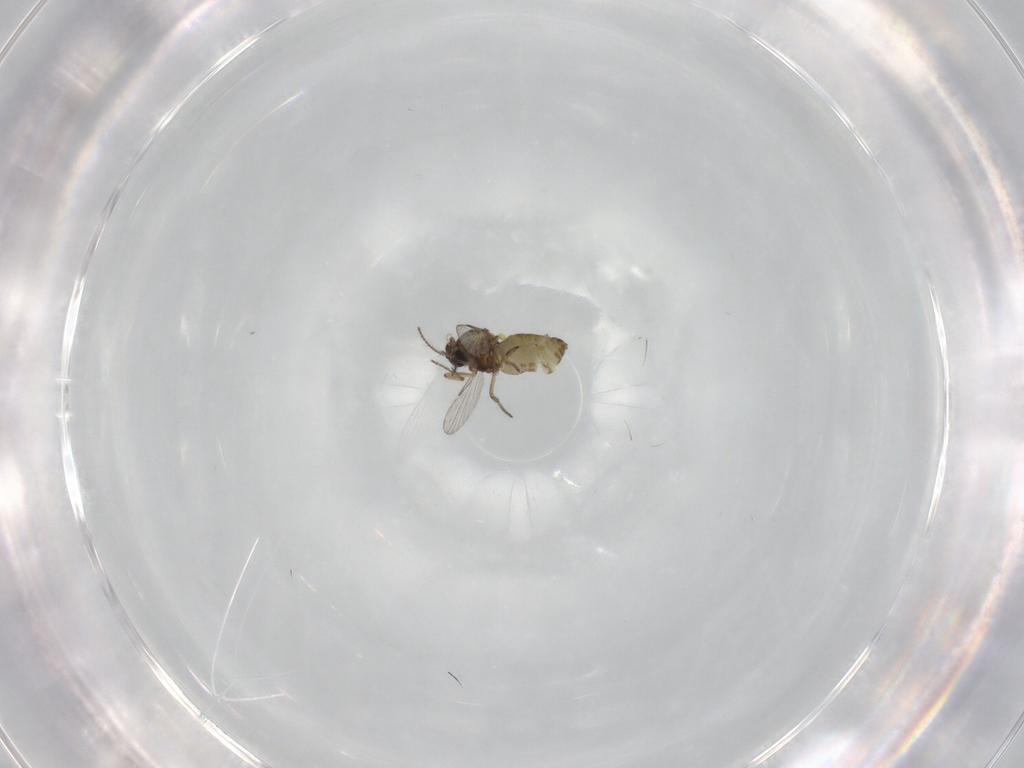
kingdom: Animalia
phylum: Arthropoda
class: Insecta
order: Diptera
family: Ceratopogonidae
